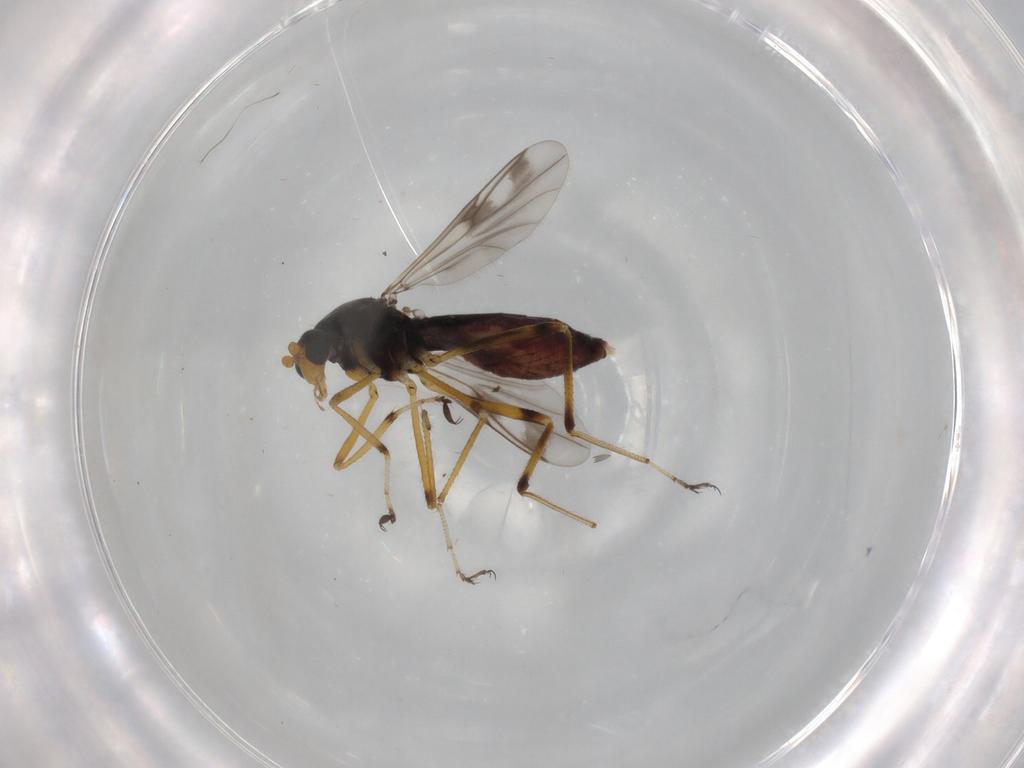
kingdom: Animalia
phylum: Arthropoda
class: Insecta
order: Diptera
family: Ceratopogonidae
